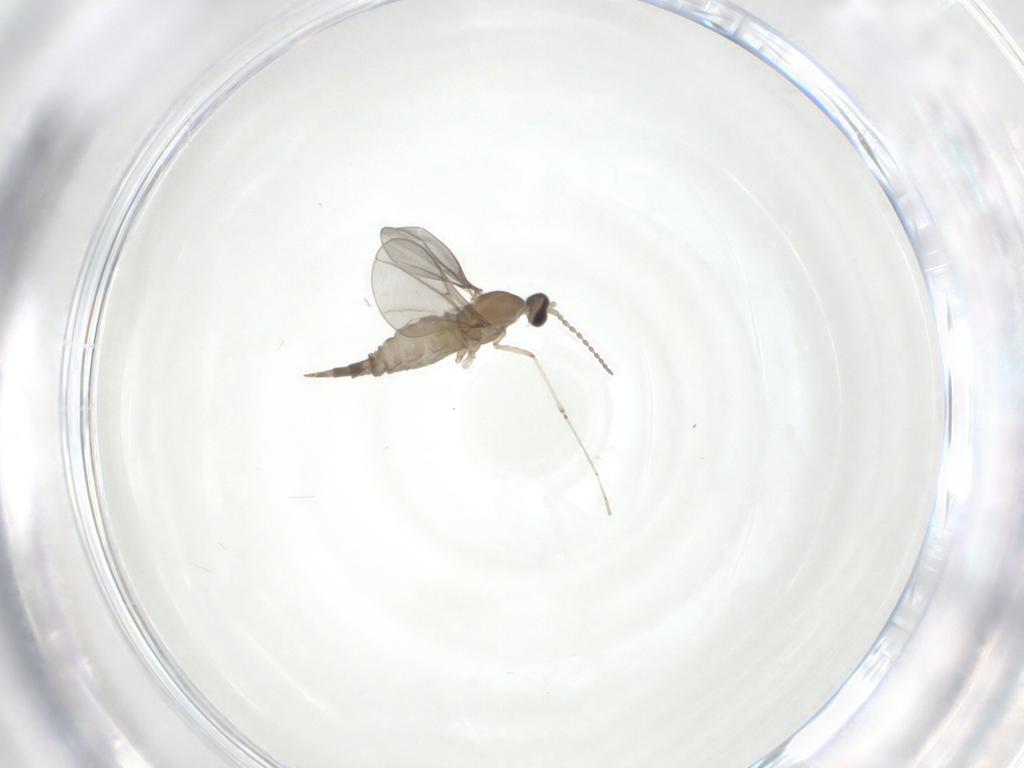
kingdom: Animalia
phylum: Arthropoda
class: Insecta
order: Diptera
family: Cecidomyiidae
